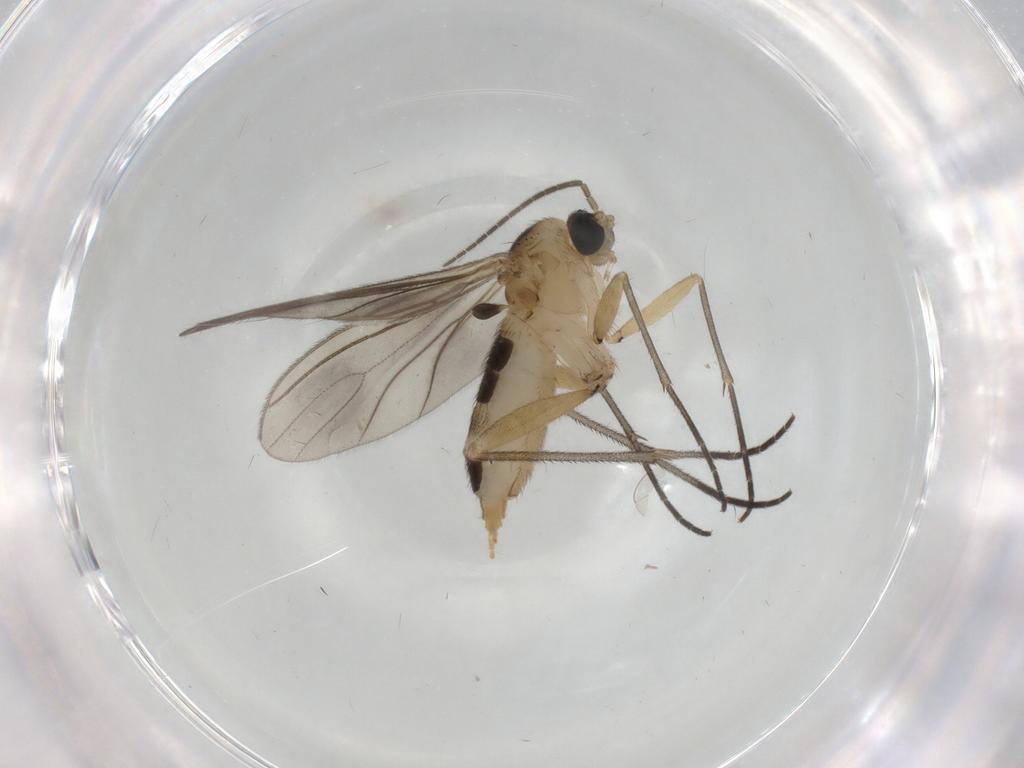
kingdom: Animalia
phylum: Arthropoda
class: Insecta
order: Diptera
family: Sciaridae
